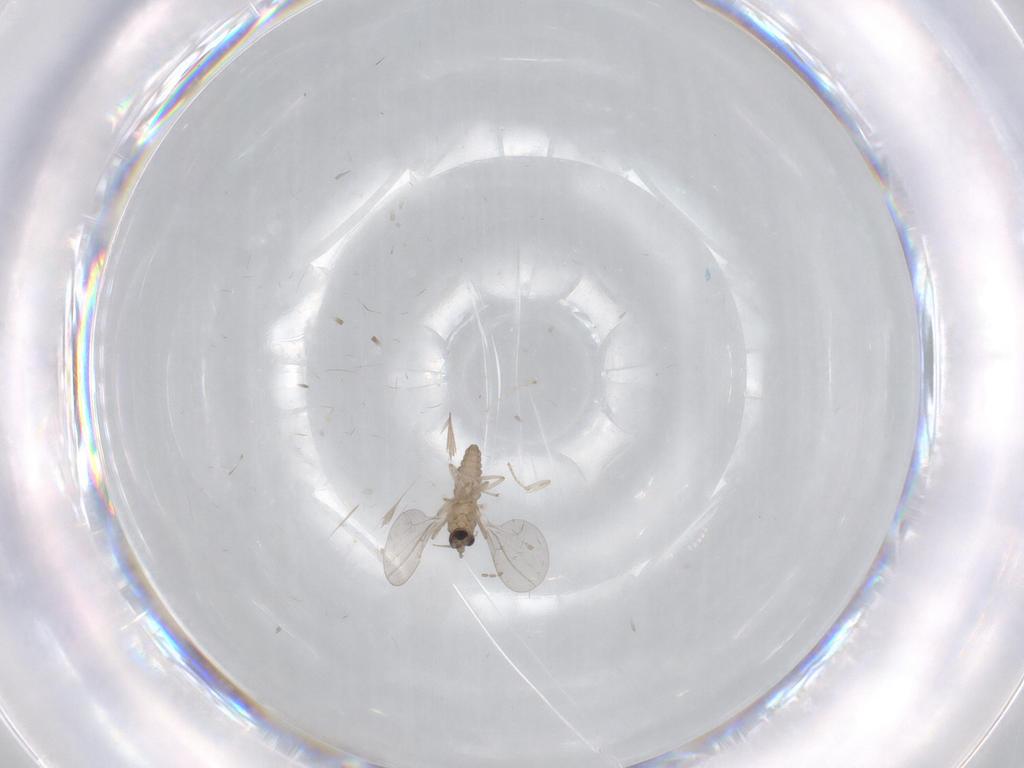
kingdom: Animalia
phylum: Arthropoda
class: Insecta
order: Diptera
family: Cecidomyiidae
